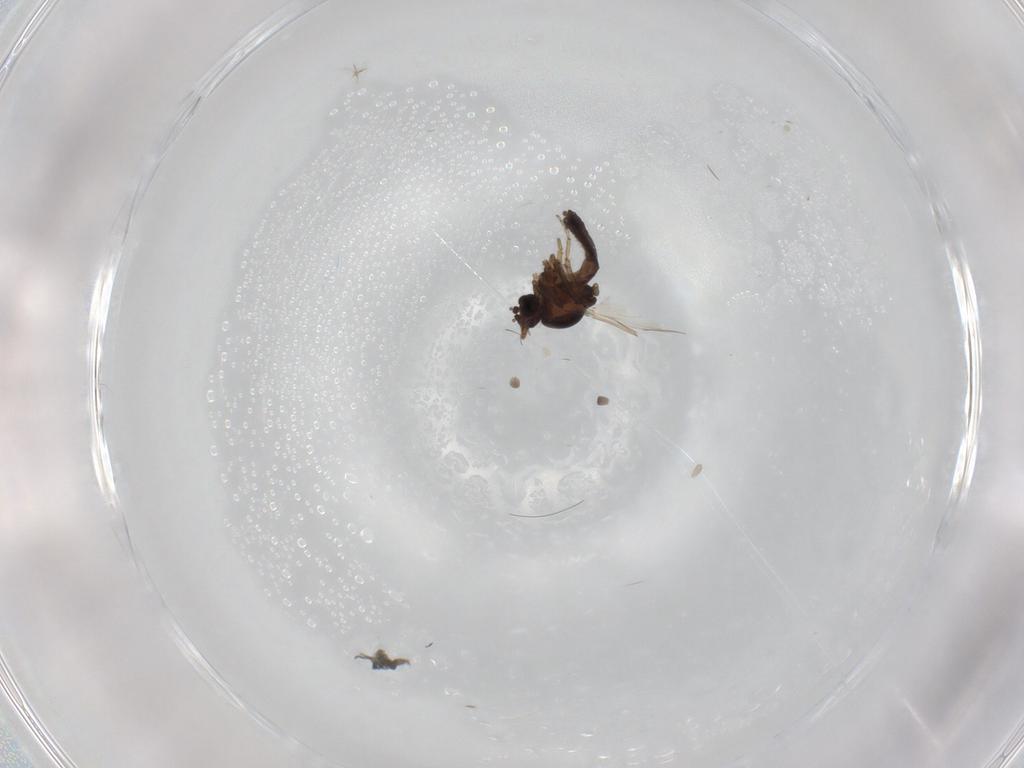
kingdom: Animalia
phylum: Arthropoda
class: Insecta
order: Diptera
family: Ceratopogonidae
